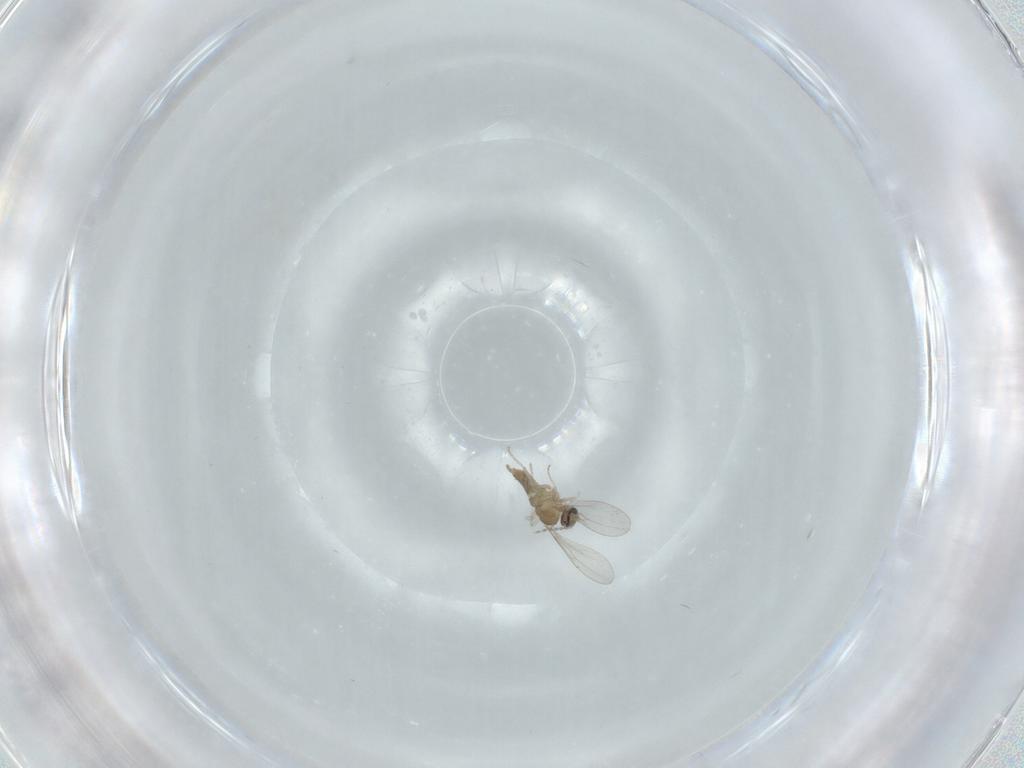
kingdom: Animalia
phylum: Arthropoda
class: Insecta
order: Diptera
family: Cecidomyiidae
